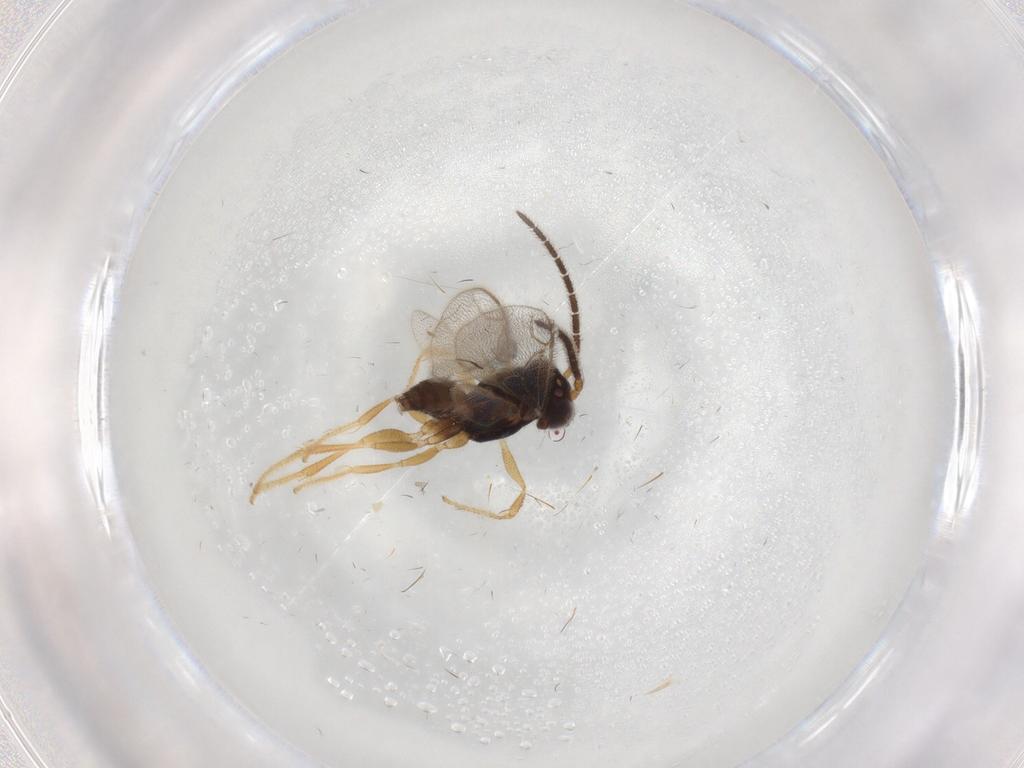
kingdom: Animalia
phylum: Arthropoda
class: Insecta
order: Hymenoptera
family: Dryinidae
